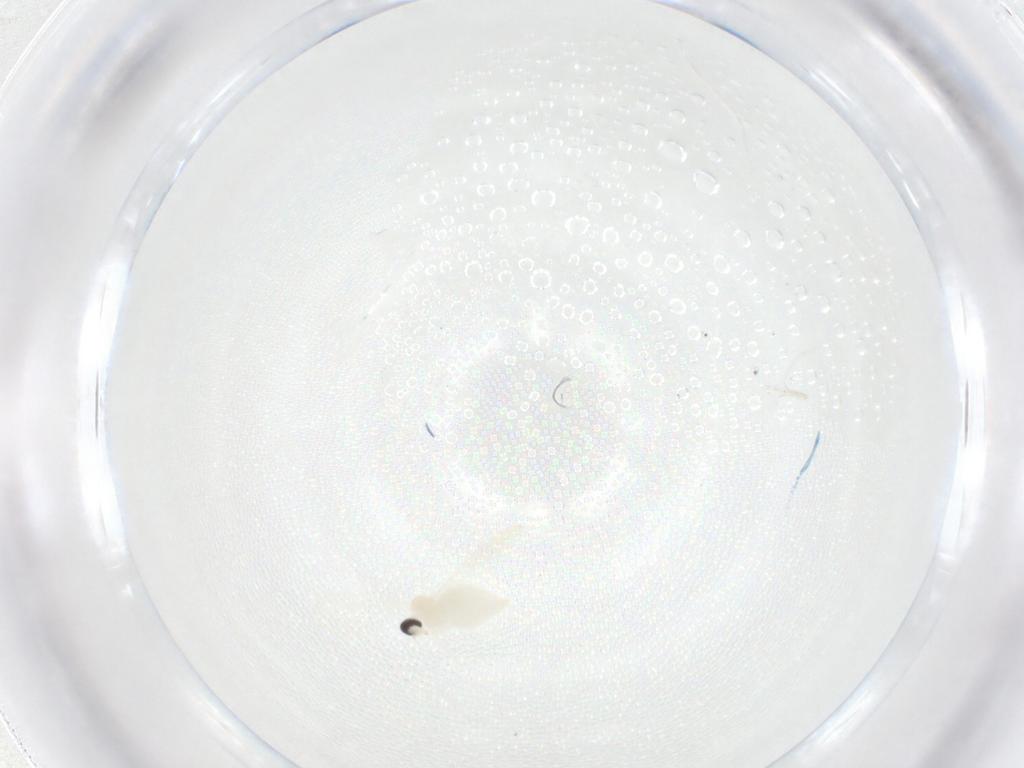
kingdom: Animalia
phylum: Arthropoda
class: Insecta
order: Diptera
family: Cecidomyiidae
